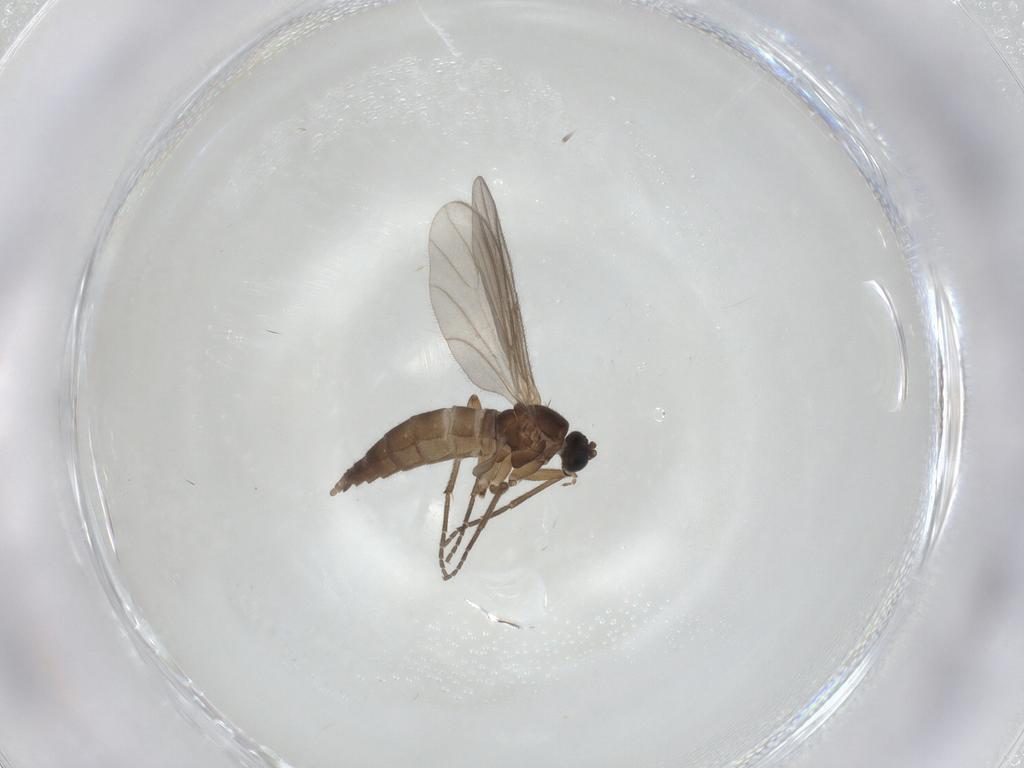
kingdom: Animalia
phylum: Arthropoda
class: Insecta
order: Diptera
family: Sciaridae
